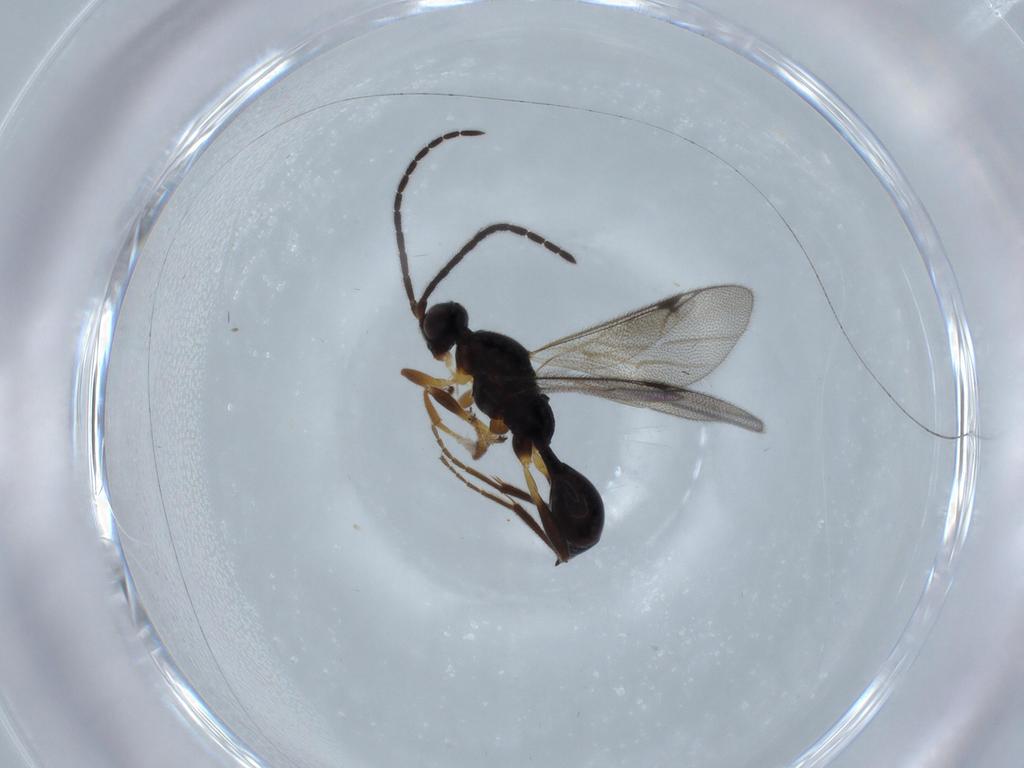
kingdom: Animalia
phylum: Arthropoda
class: Insecta
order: Hymenoptera
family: Proctotrupidae
